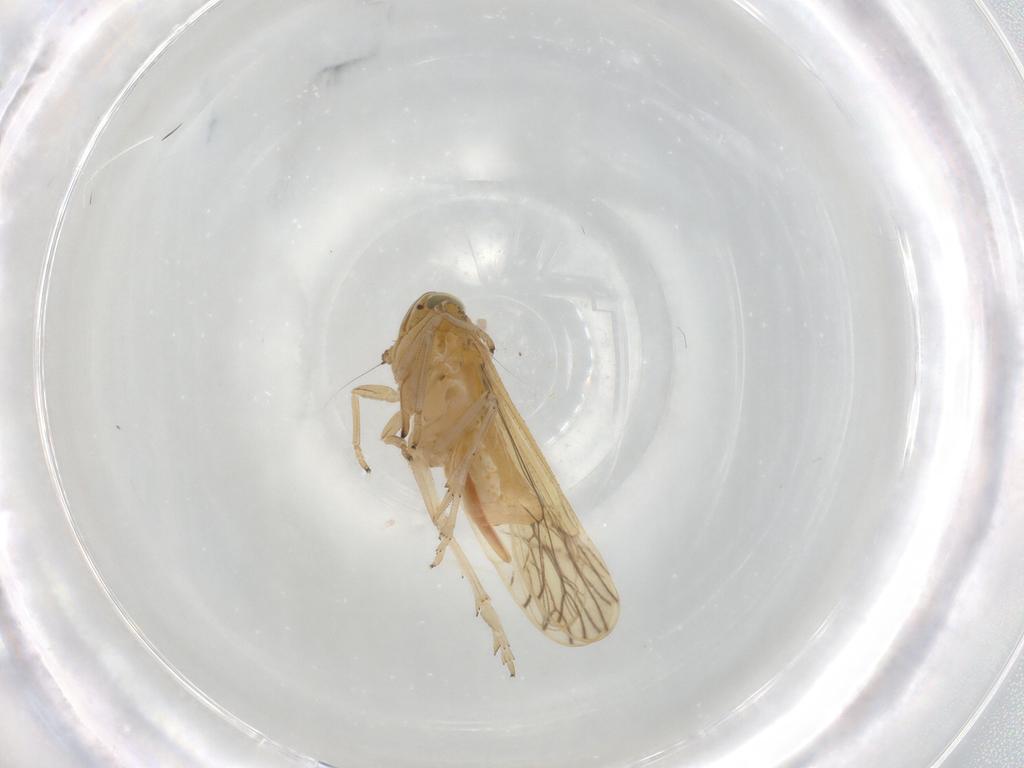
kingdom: Animalia
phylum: Arthropoda
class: Insecta
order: Hemiptera
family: Delphacidae
